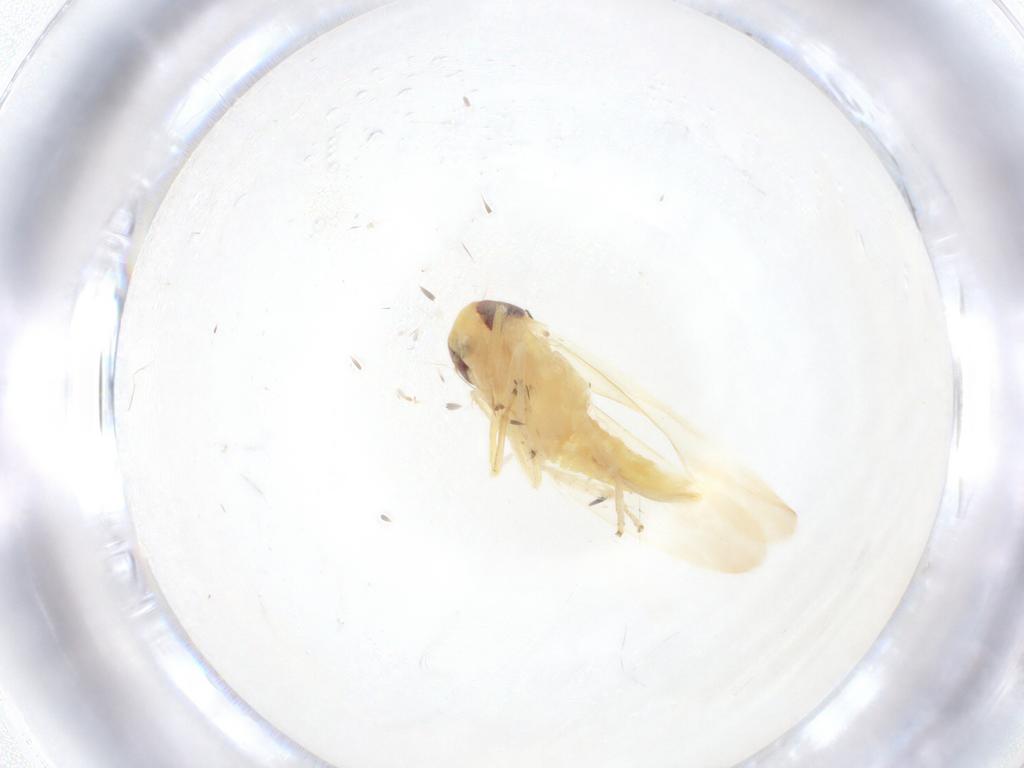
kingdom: Animalia
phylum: Arthropoda
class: Insecta
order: Hemiptera
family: Cicadellidae
